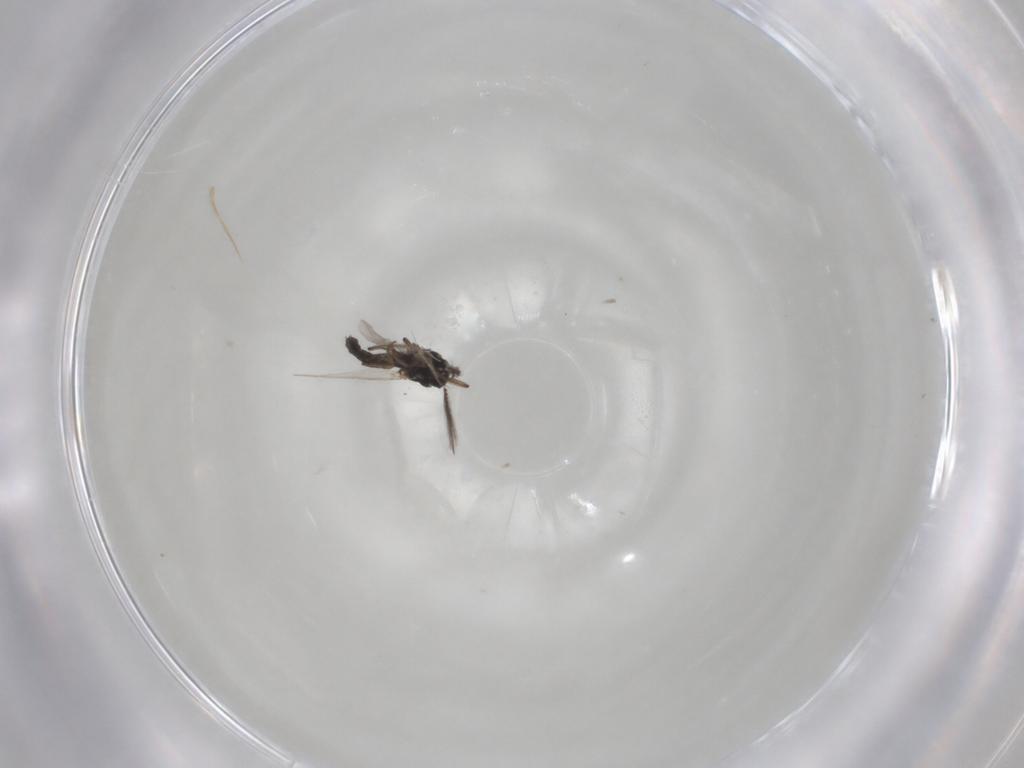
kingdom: Animalia
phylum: Arthropoda
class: Insecta
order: Diptera
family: Ceratopogonidae
